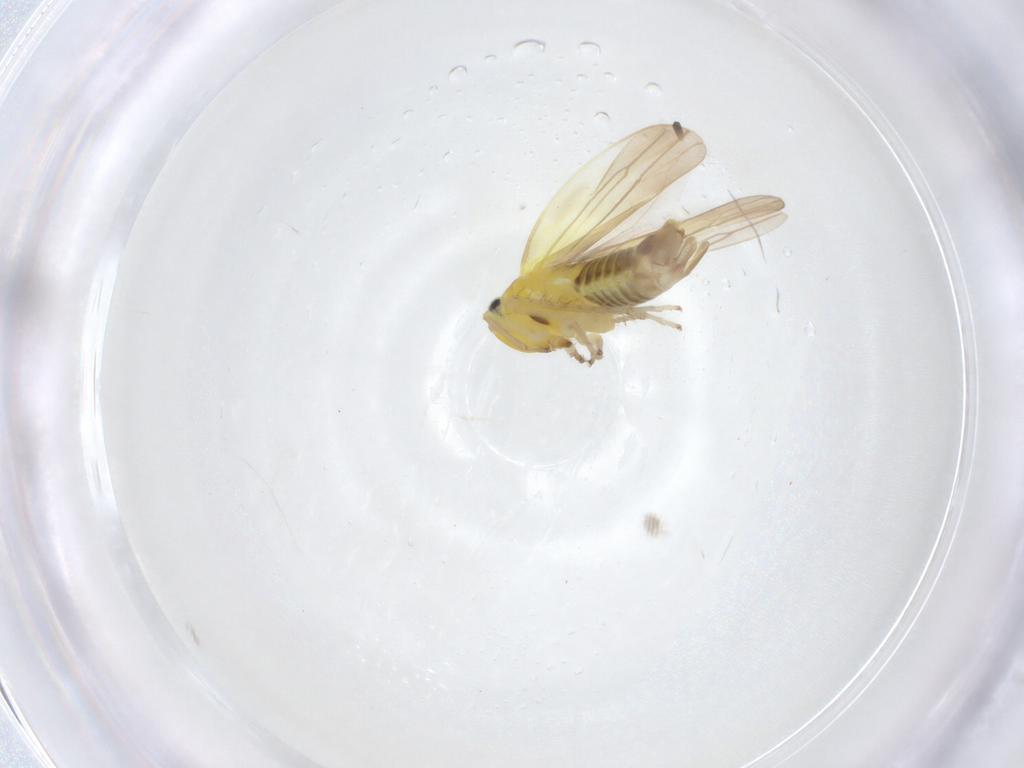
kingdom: Animalia
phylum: Arthropoda
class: Insecta
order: Hemiptera
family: Cicadellidae
